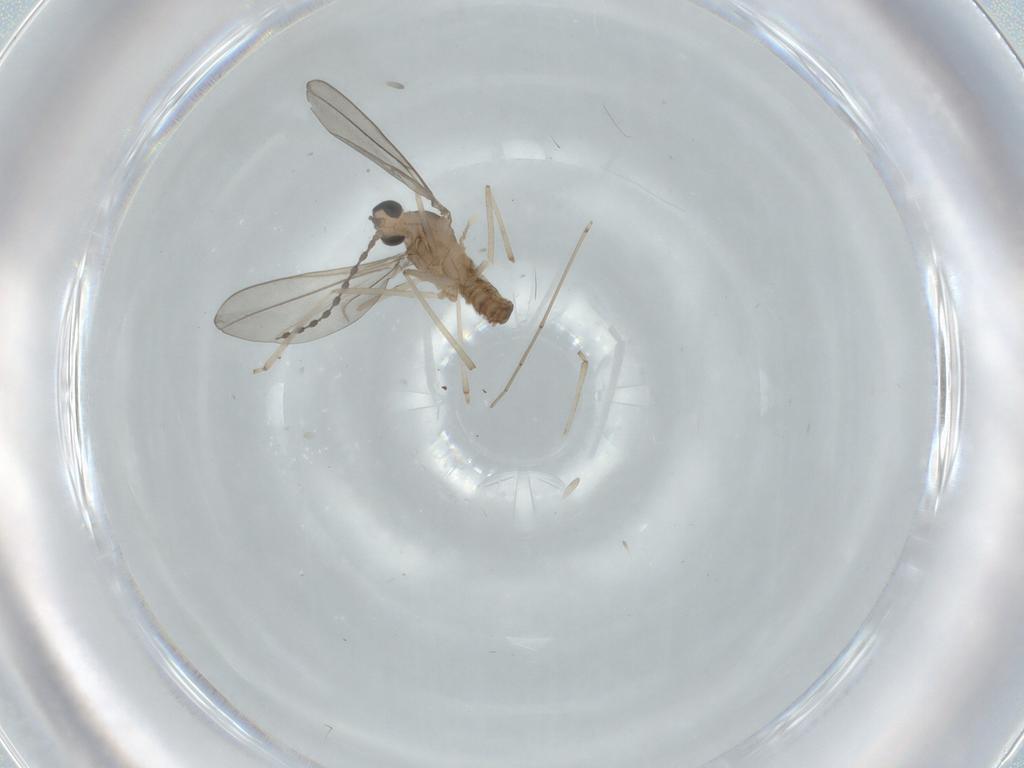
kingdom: Animalia
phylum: Arthropoda
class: Insecta
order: Diptera
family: Cecidomyiidae
